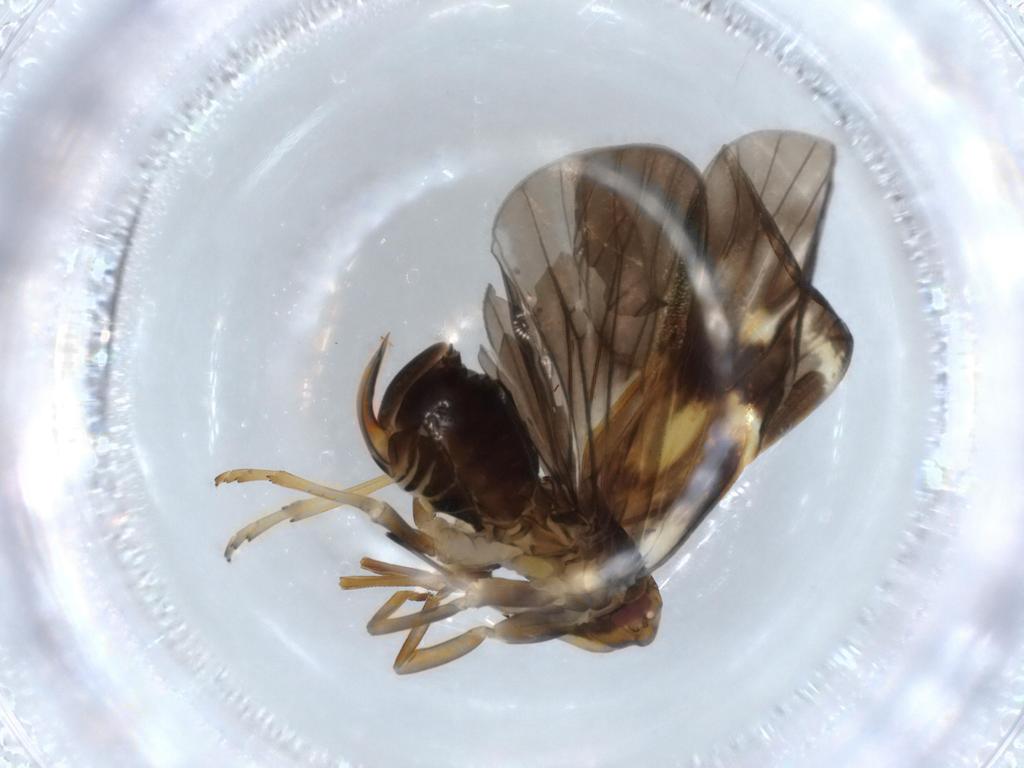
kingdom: Animalia
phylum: Arthropoda
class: Insecta
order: Hemiptera
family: Cixiidae
